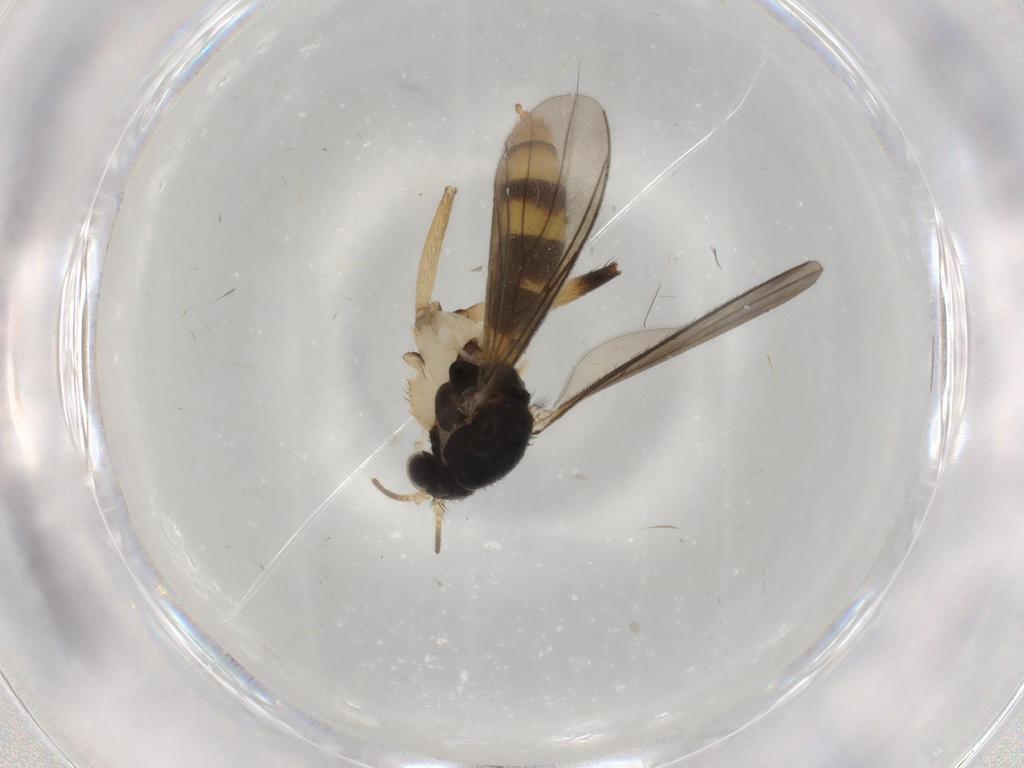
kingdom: Animalia
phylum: Arthropoda
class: Insecta
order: Diptera
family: Mycetophilidae
